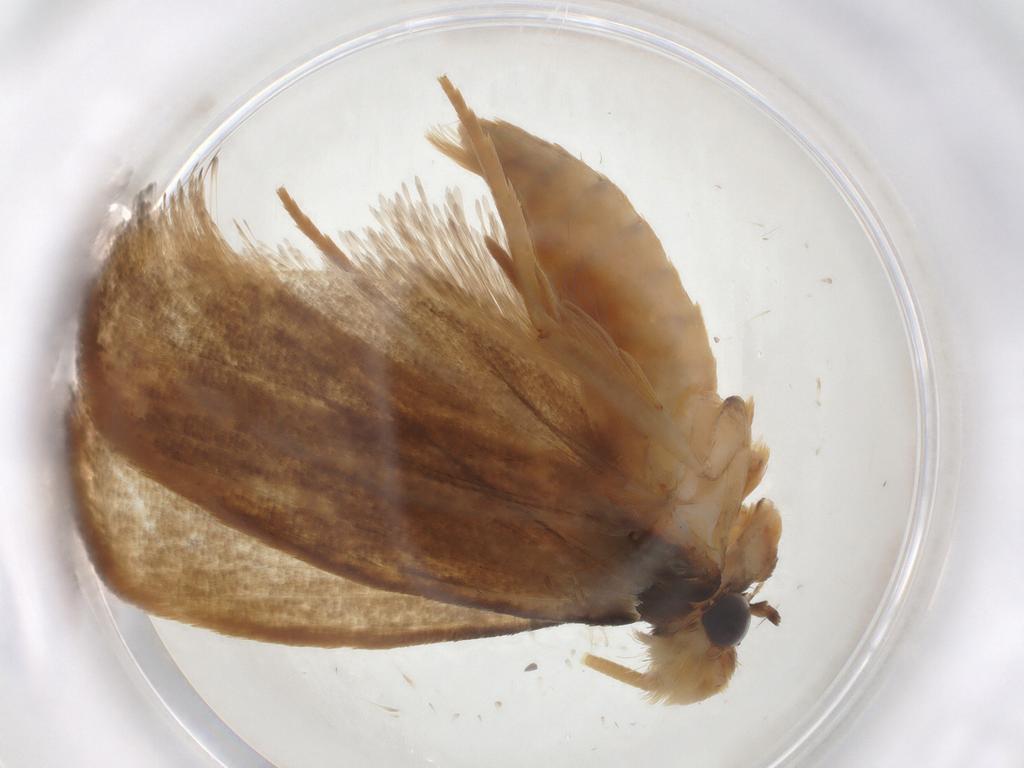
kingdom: Animalia
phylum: Arthropoda
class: Insecta
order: Lepidoptera
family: Erebidae
